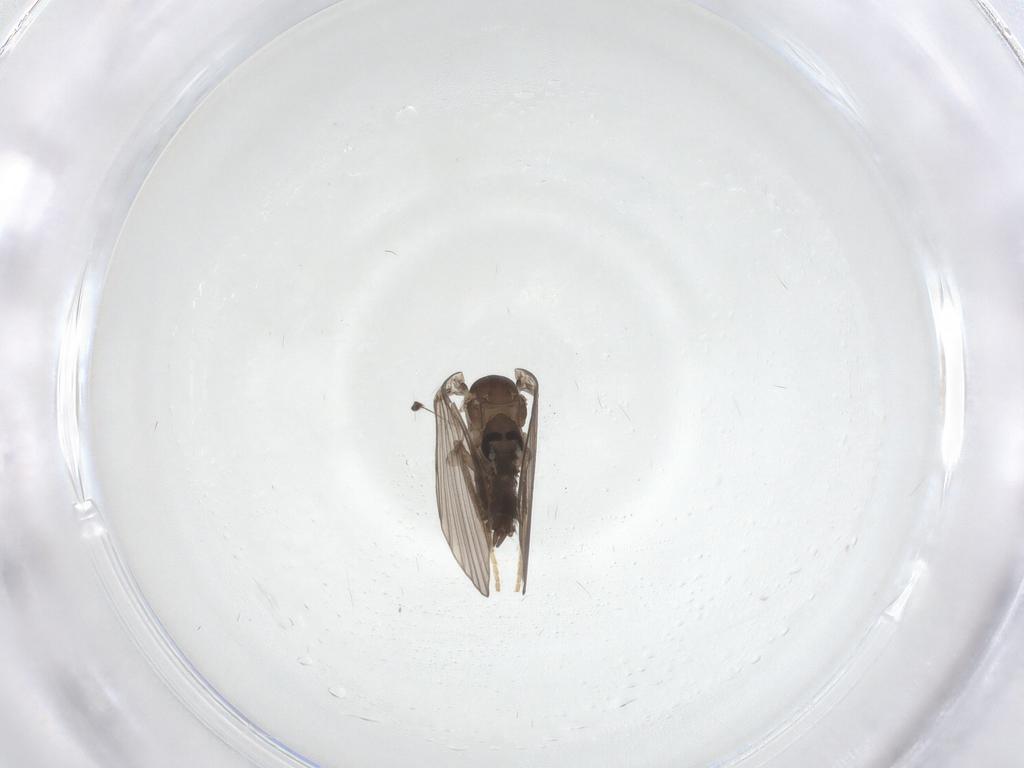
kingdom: Animalia
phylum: Arthropoda
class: Insecta
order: Diptera
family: Psychodidae
